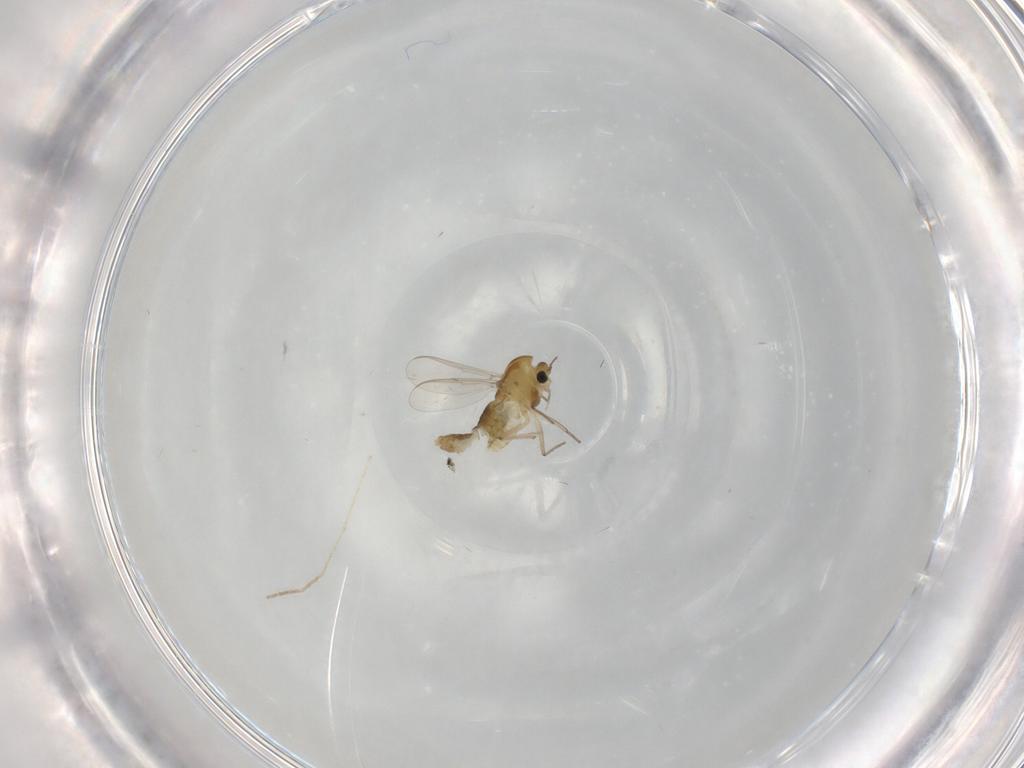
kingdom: Animalia
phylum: Arthropoda
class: Insecta
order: Diptera
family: Chironomidae
